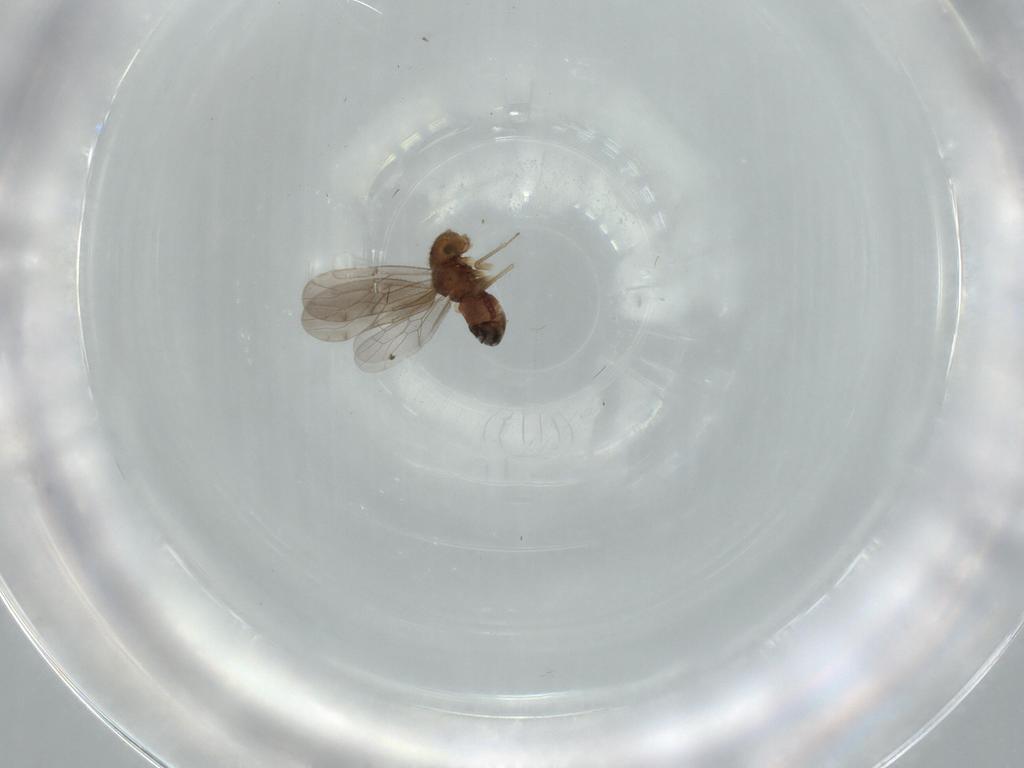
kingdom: Animalia
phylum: Arthropoda
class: Insecta
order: Psocodea
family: Ectopsocidae
